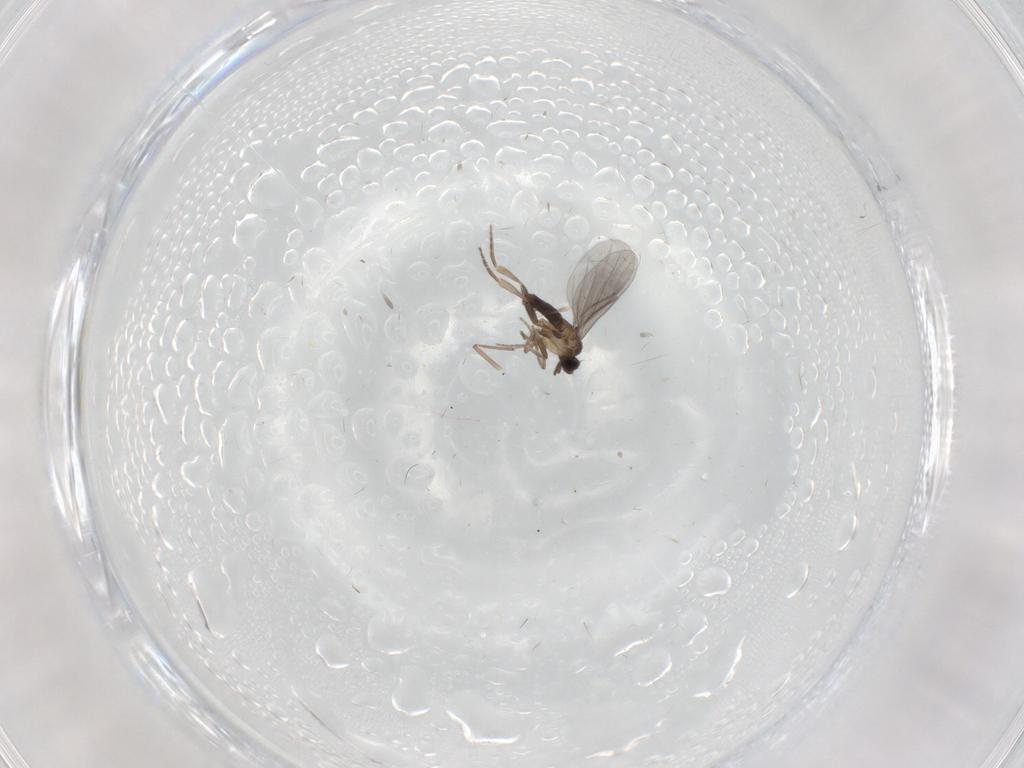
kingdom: Animalia
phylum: Arthropoda
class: Insecta
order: Diptera
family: Chironomidae
